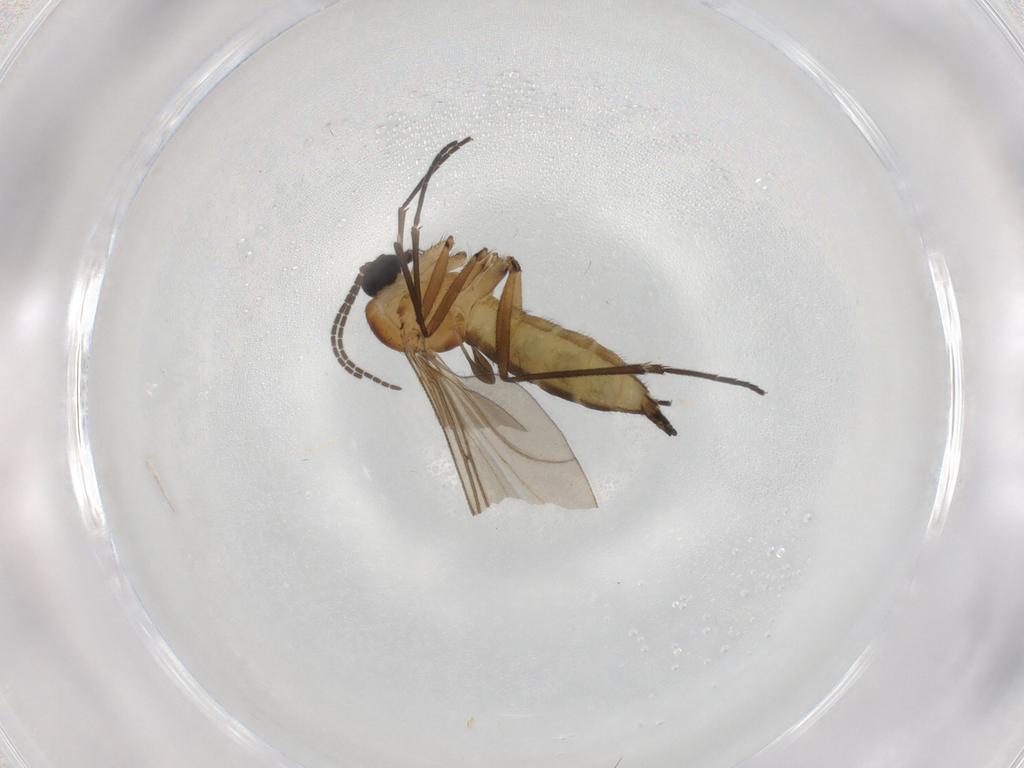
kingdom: Animalia
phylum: Arthropoda
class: Insecta
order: Diptera
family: Sciaridae
